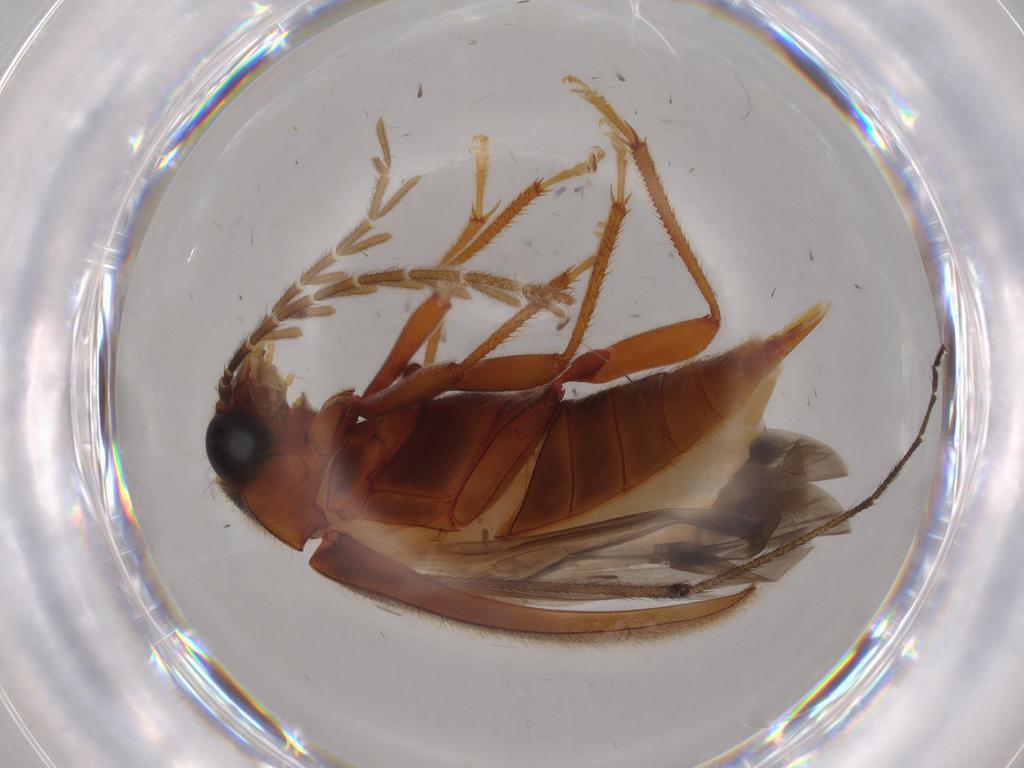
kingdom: Animalia
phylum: Arthropoda
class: Insecta
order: Coleoptera
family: Ptilodactylidae
